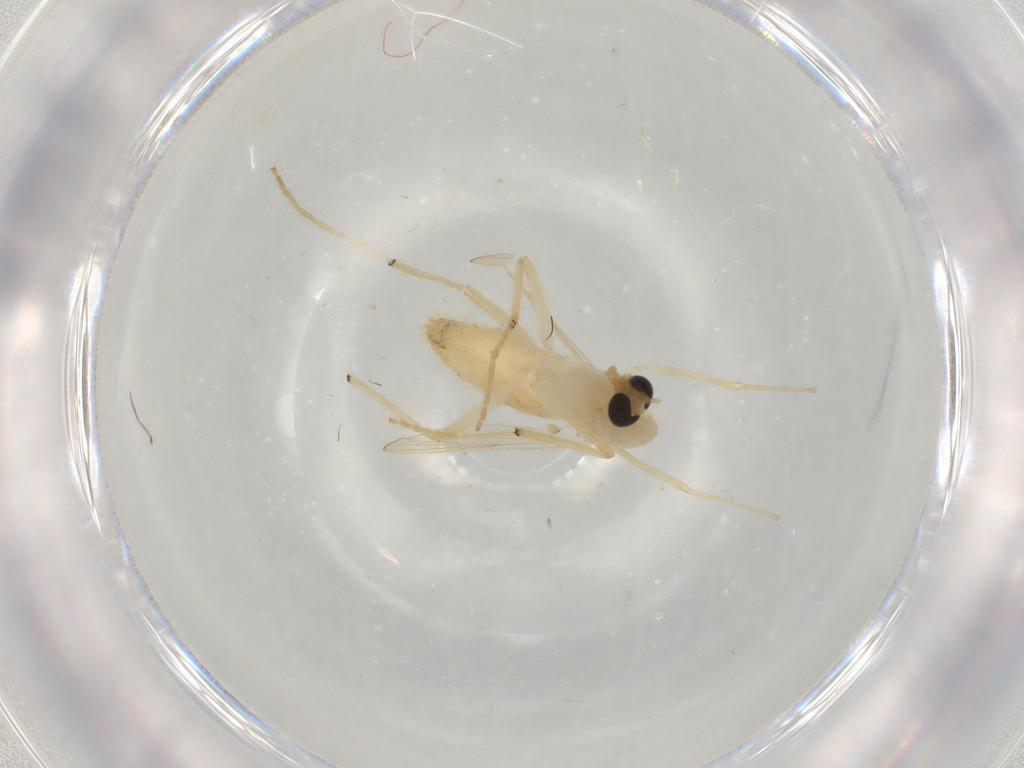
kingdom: Animalia
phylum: Arthropoda
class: Insecta
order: Diptera
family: Chironomidae
